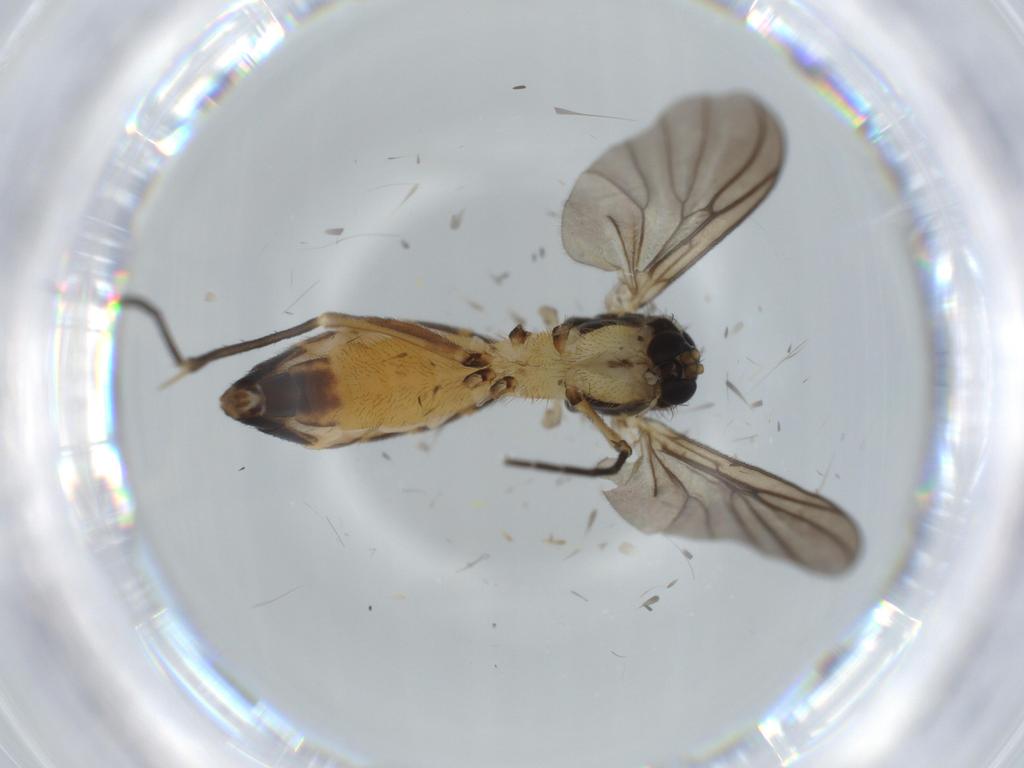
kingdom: Animalia
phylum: Arthropoda
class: Insecta
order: Diptera
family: Mycetophilidae
